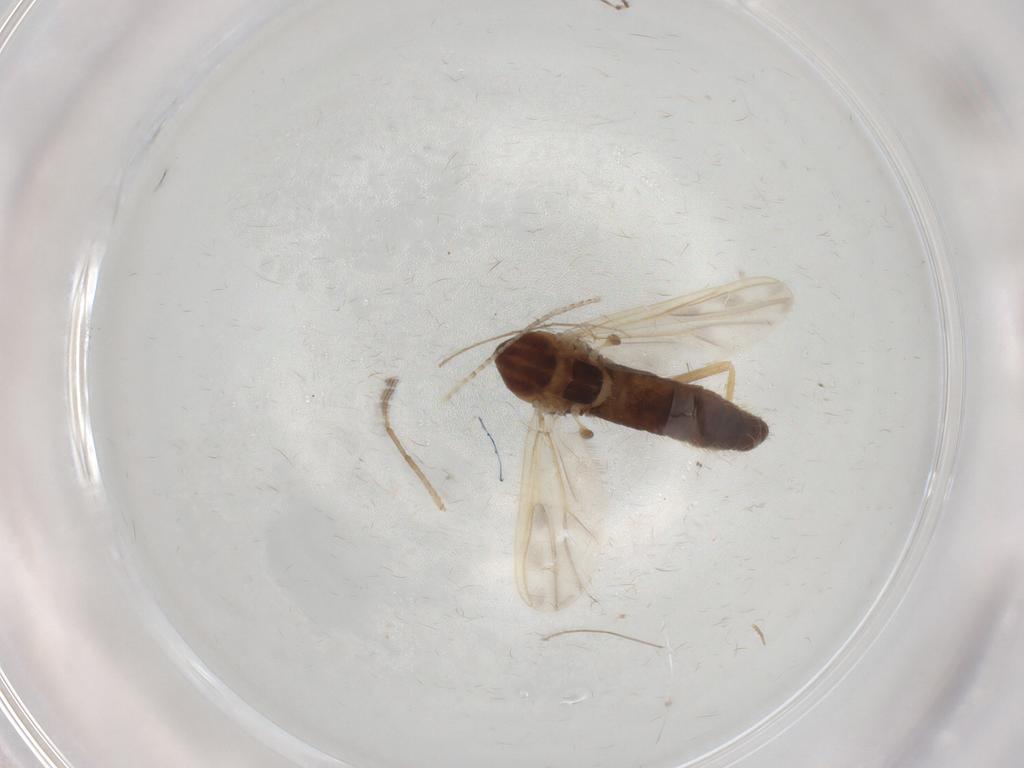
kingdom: Animalia
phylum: Arthropoda
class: Insecta
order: Diptera
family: Chironomidae
